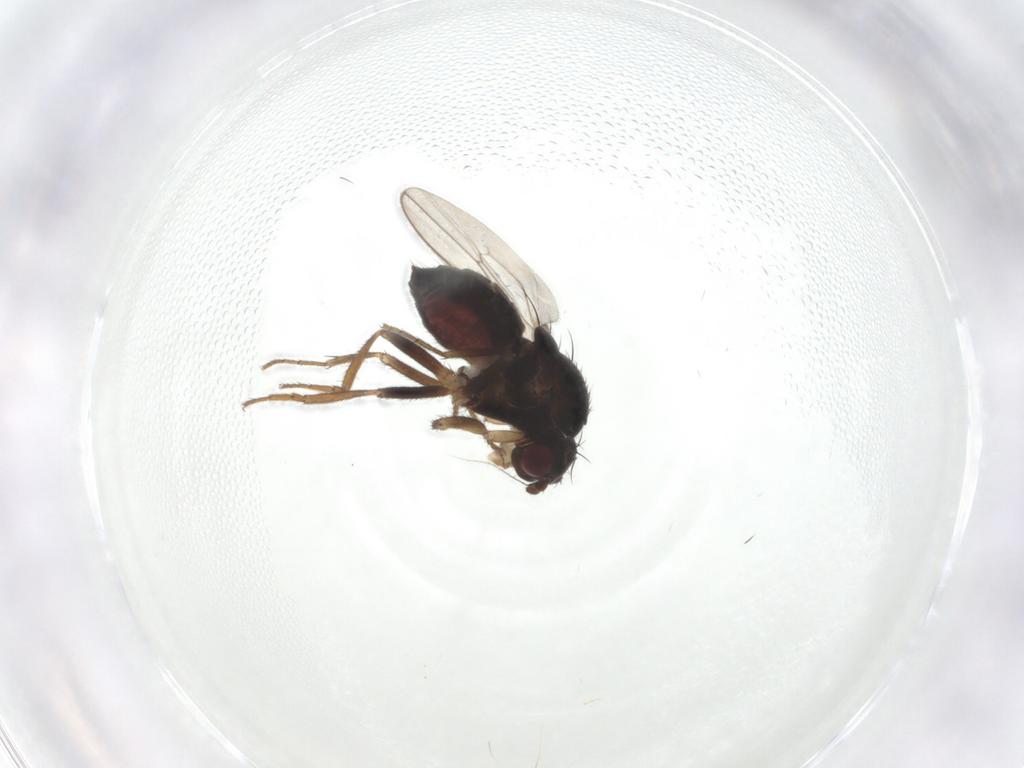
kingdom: Animalia
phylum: Arthropoda
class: Insecta
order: Diptera
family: Sphaeroceridae
